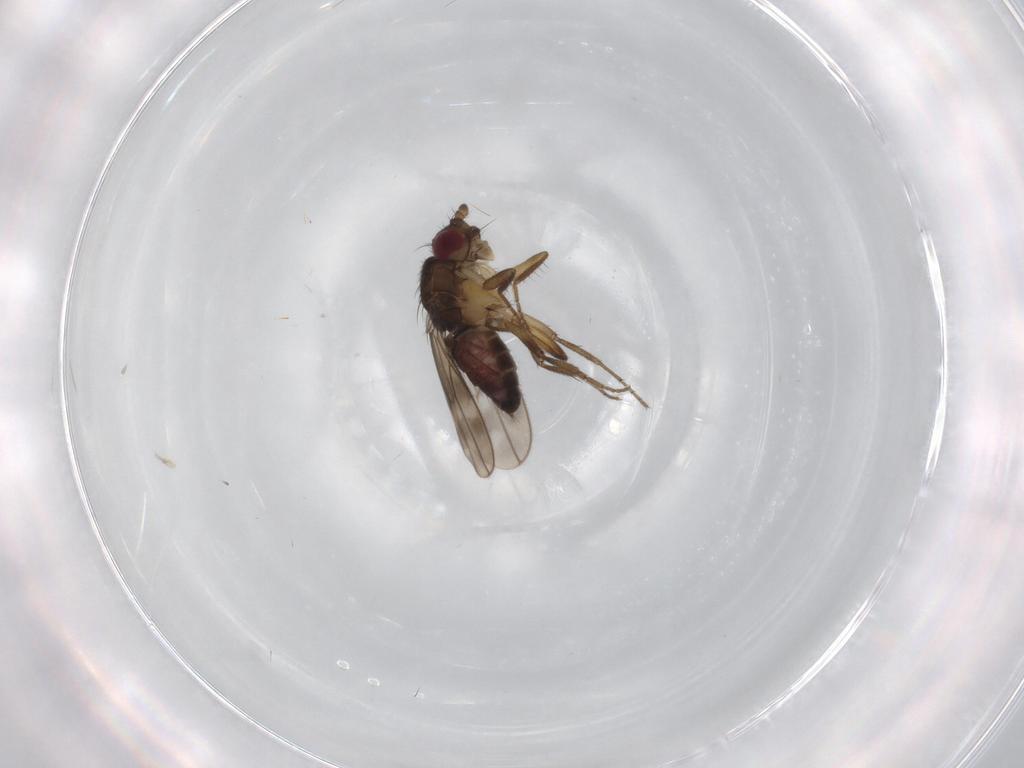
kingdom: Animalia
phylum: Arthropoda
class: Insecta
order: Diptera
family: Sphaeroceridae
